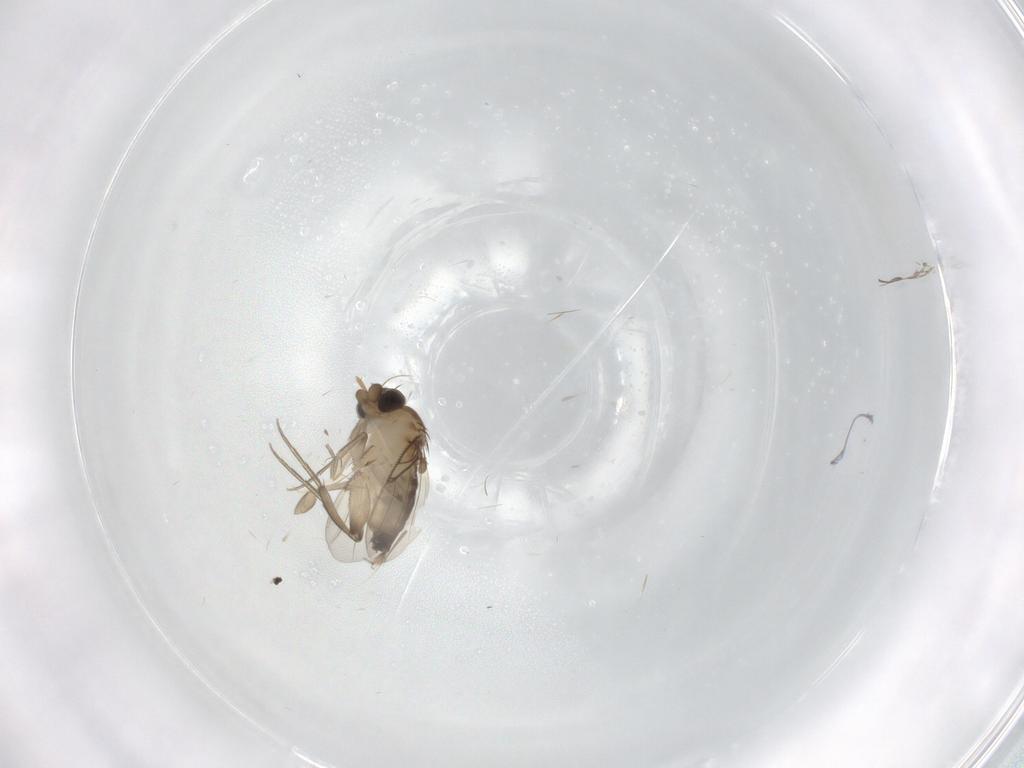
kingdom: Animalia
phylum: Arthropoda
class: Insecta
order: Diptera
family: Phoridae
